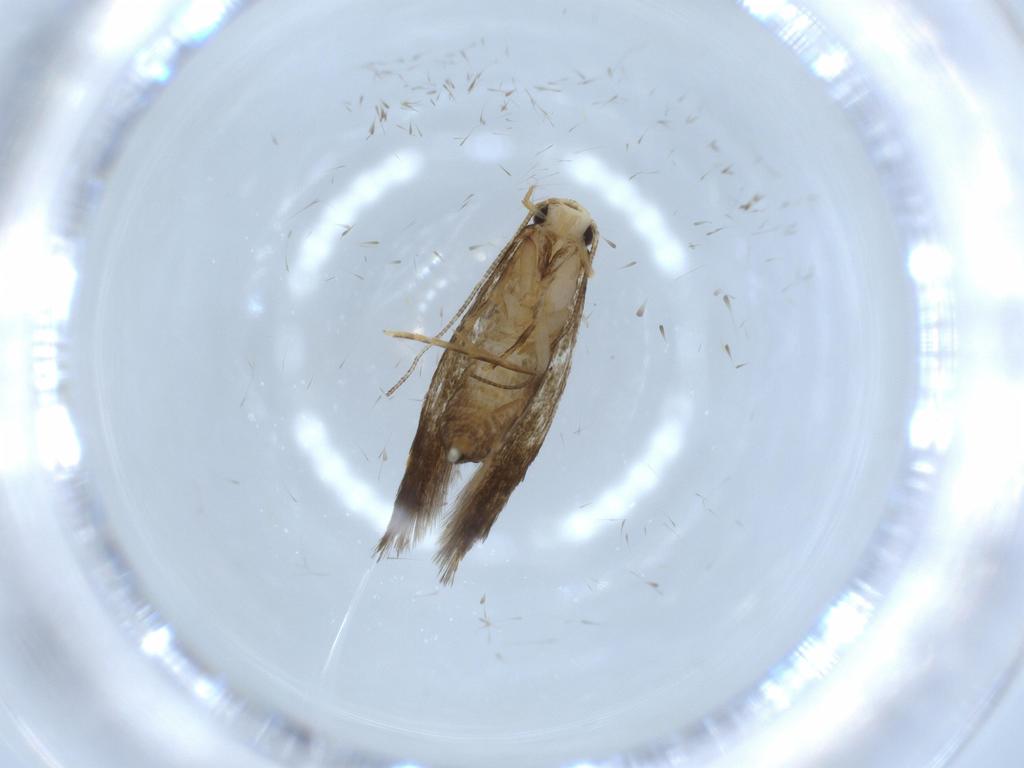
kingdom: Animalia
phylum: Arthropoda
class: Insecta
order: Lepidoptera
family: Tineidae
